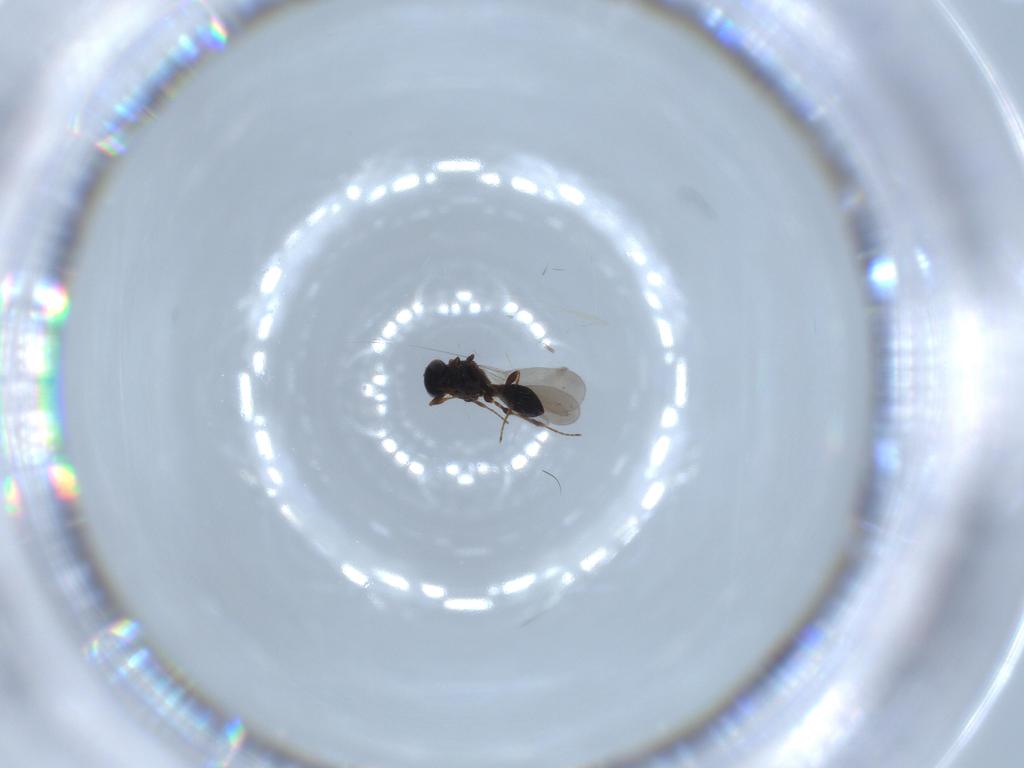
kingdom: Animalia
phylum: Arthropoda
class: Insecta
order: Hymenoptera
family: Platygastridae
